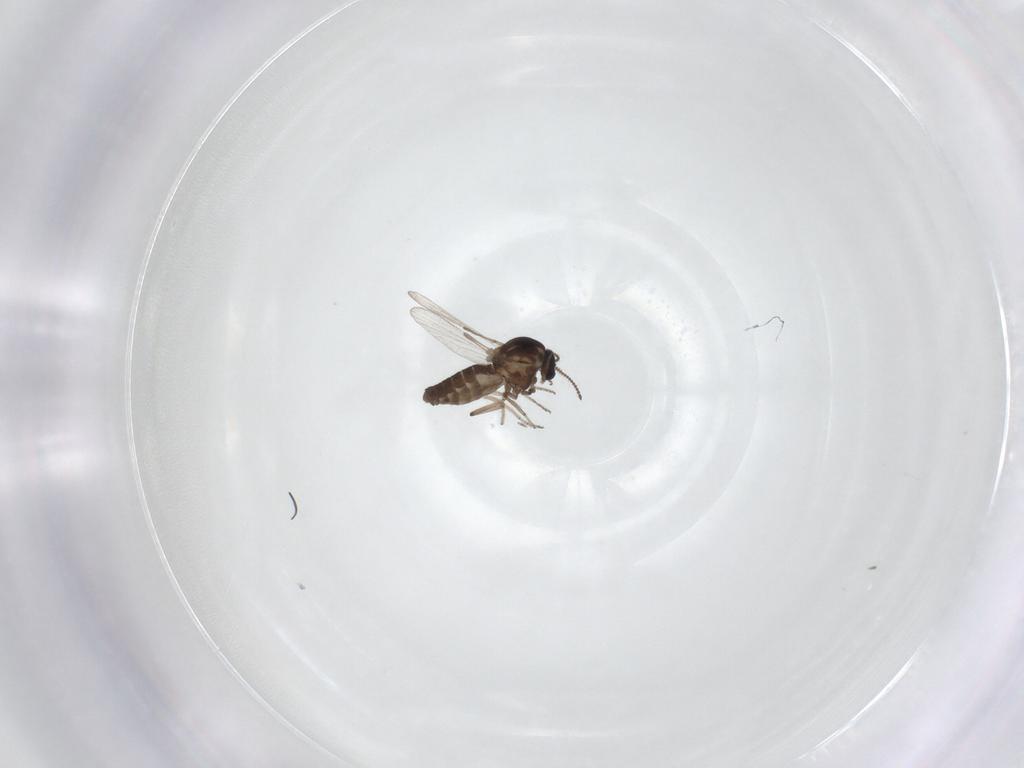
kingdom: Animalia
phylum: Arthropoda
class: Insecta
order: Diptera
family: Ceratopogonidae
